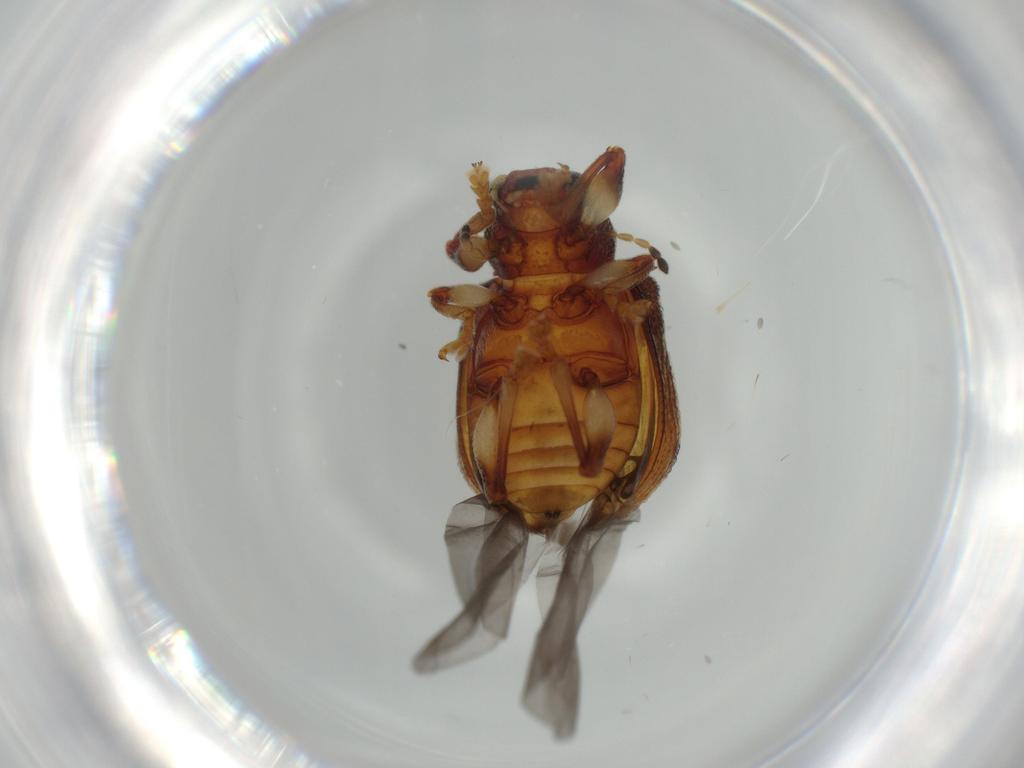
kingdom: Animalia
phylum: Arthropoda
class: Insecta
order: Coleoptera
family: Chrysomelidae
